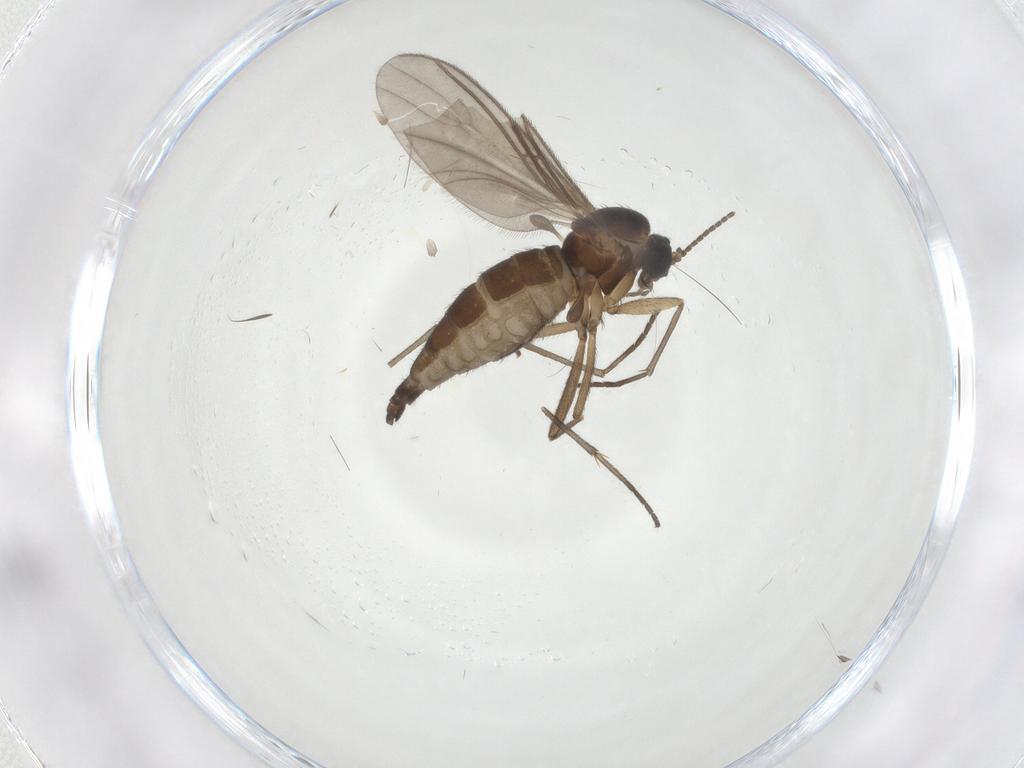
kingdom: Animalia
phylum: Arthropoda
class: Insecta
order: Diptera
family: Sciaridae
